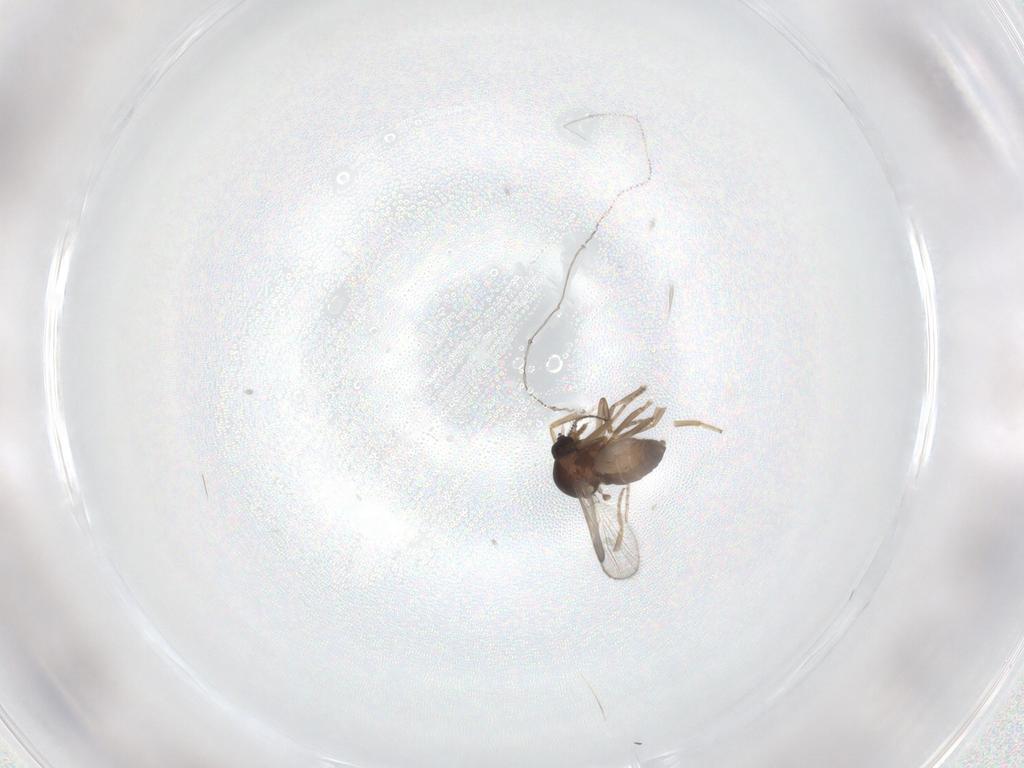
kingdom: Animalia
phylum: Arthropoda
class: Insecta
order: Diptera
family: Ceratopogonidae
